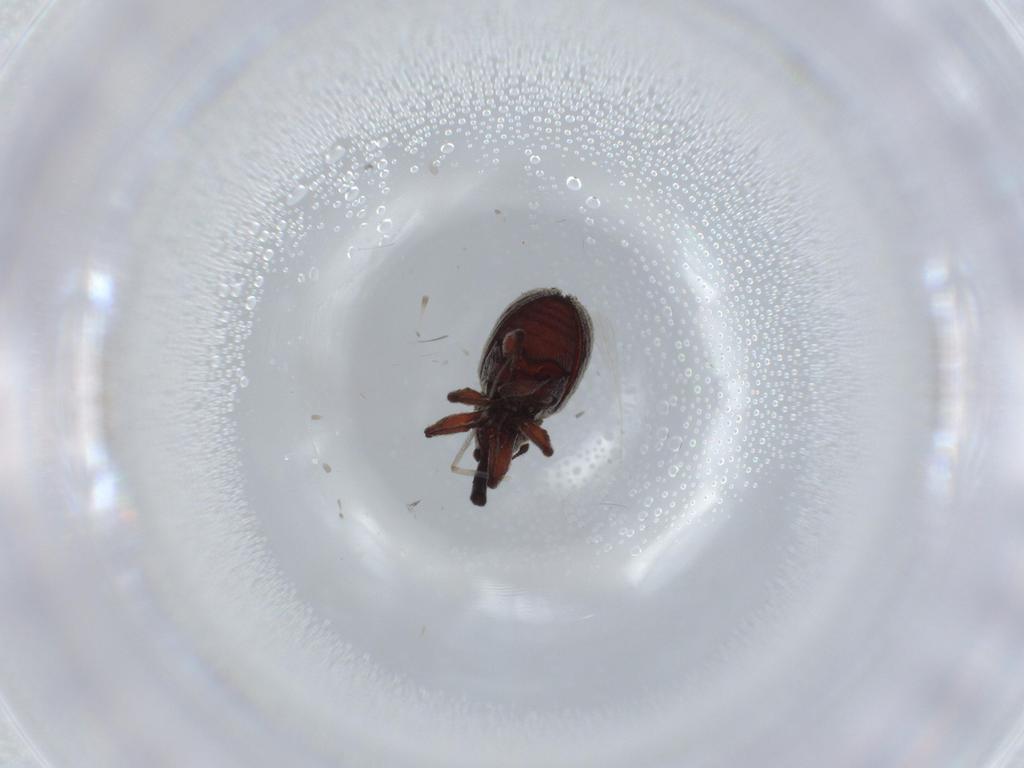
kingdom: Animalia
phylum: Arthropoda
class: Insecta
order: Coleoptera
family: Curculionidae
